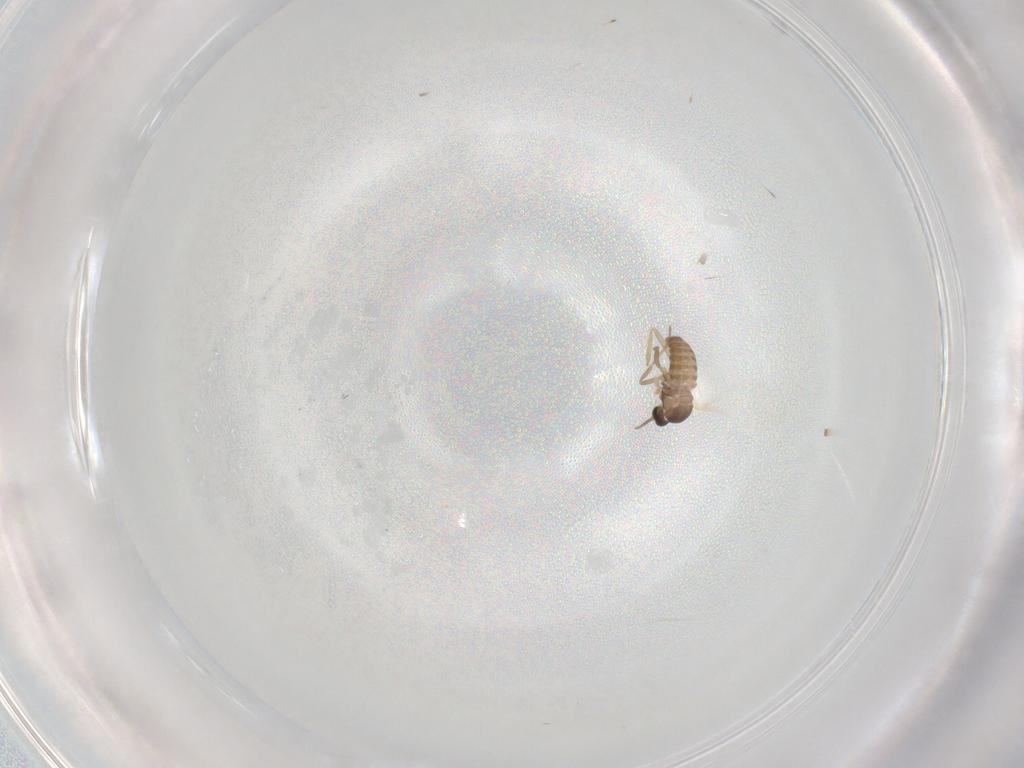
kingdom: Animalia
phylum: Arthropoda
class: Insecta
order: Diptera
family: Cecidomyiidae
